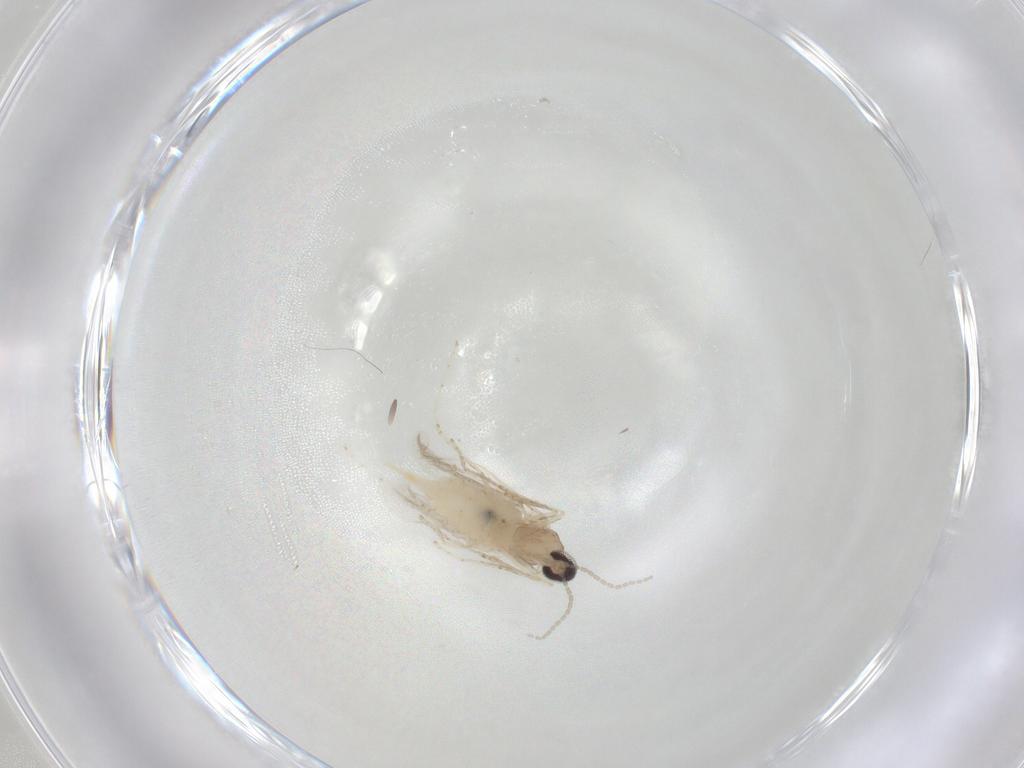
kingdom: Animalia
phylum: Arthropoda
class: Insecta
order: Diptera
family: Cecidomyiidae
